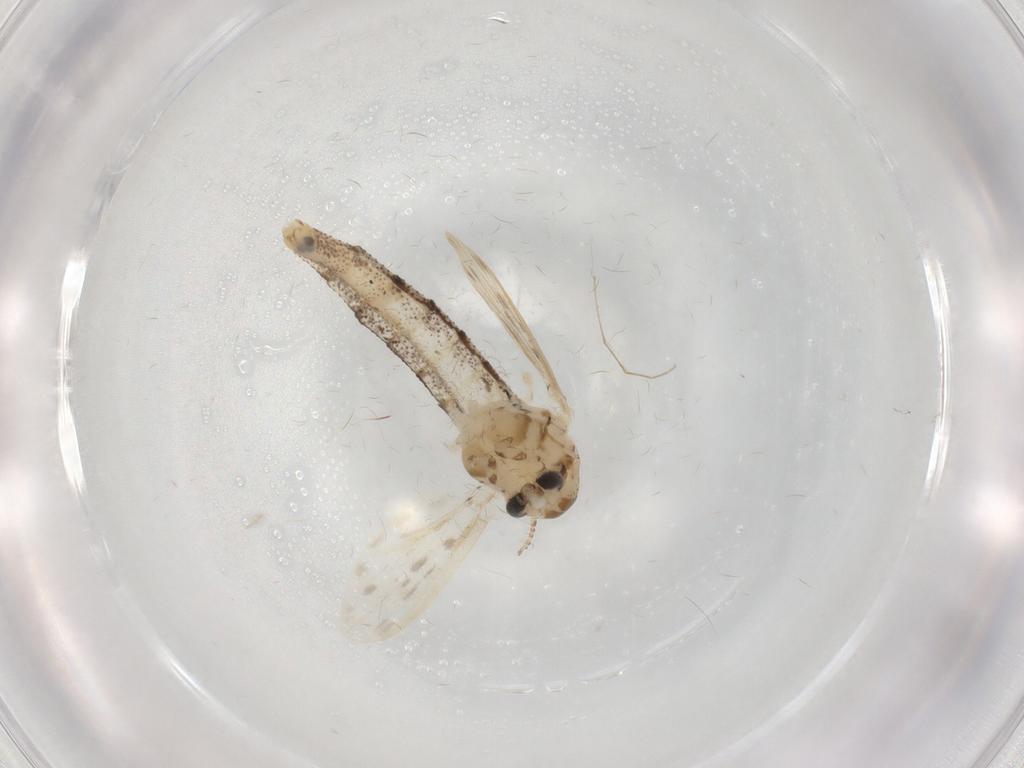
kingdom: Animalia
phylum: Arthropoda
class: Insecta
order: Diptera
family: Chaoboridae
